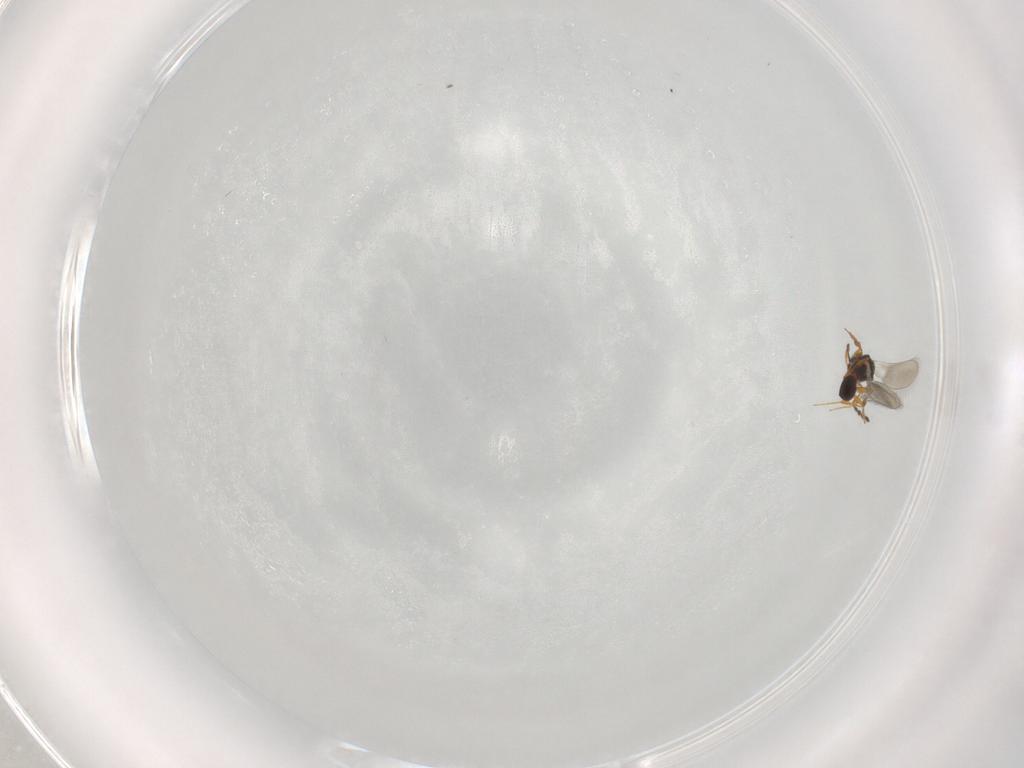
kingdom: Animalia
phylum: Arthropoda
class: Insecta
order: Hymenoptera
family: Platygastridae
